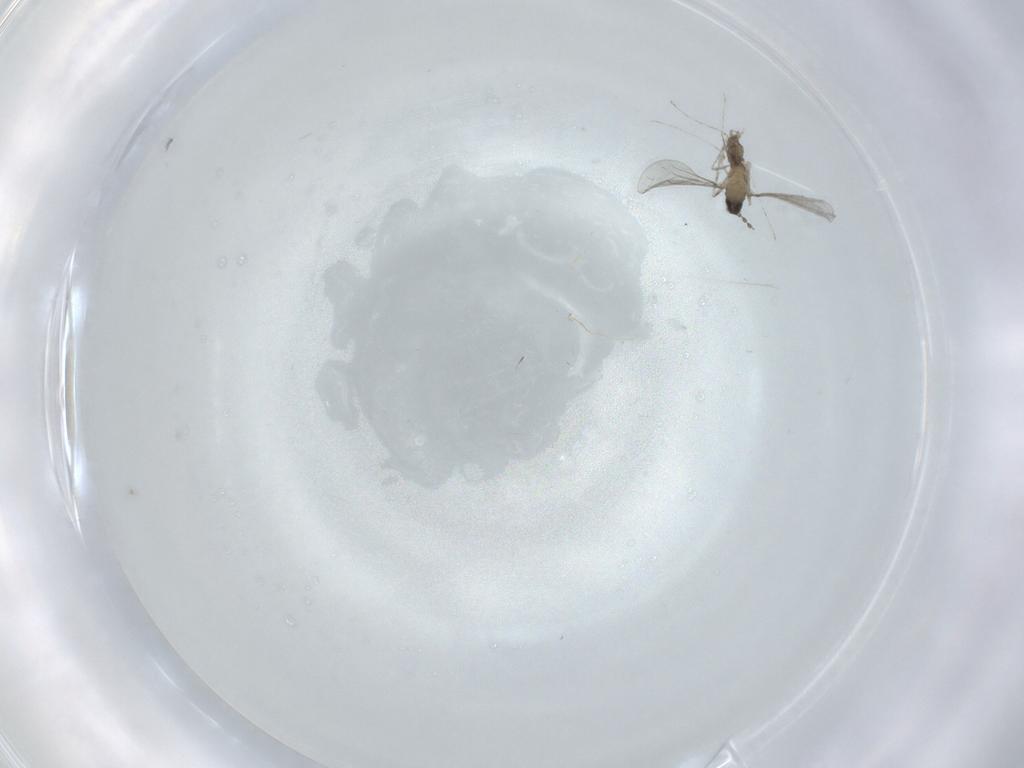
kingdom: Animalia
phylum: Arthropoda
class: Insecta
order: Diptera
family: Cecidomyiidae
